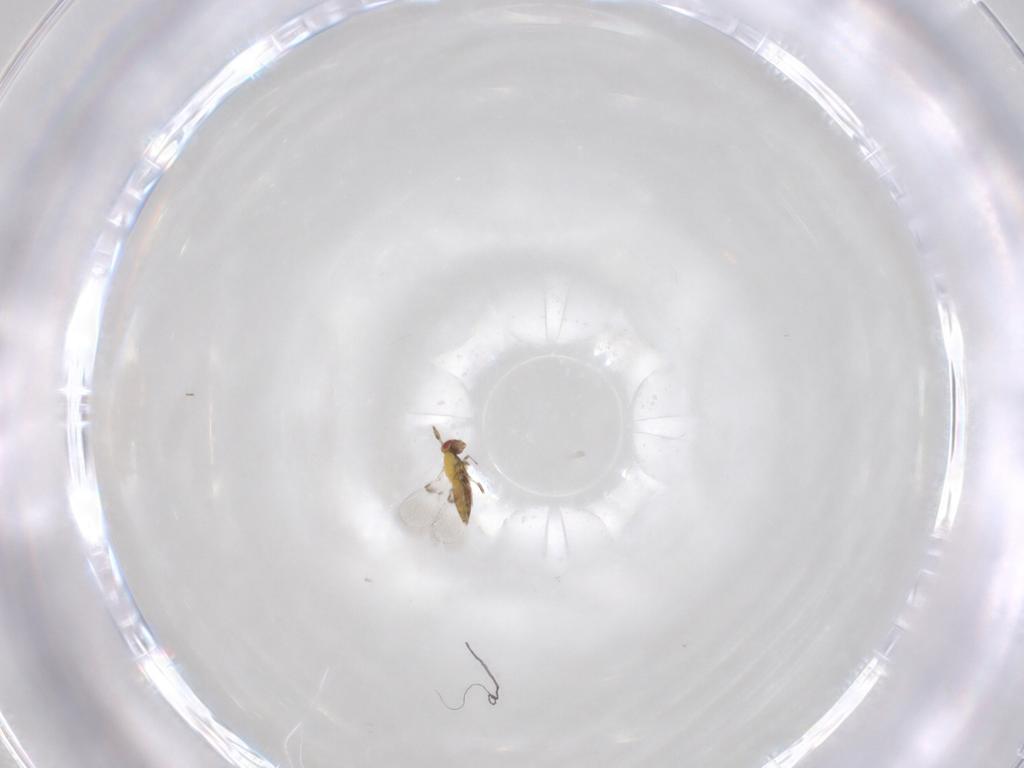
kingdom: Animalia
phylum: Arthropoda
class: Insecta
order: Hymenoptera
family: Trichogrammatidae
